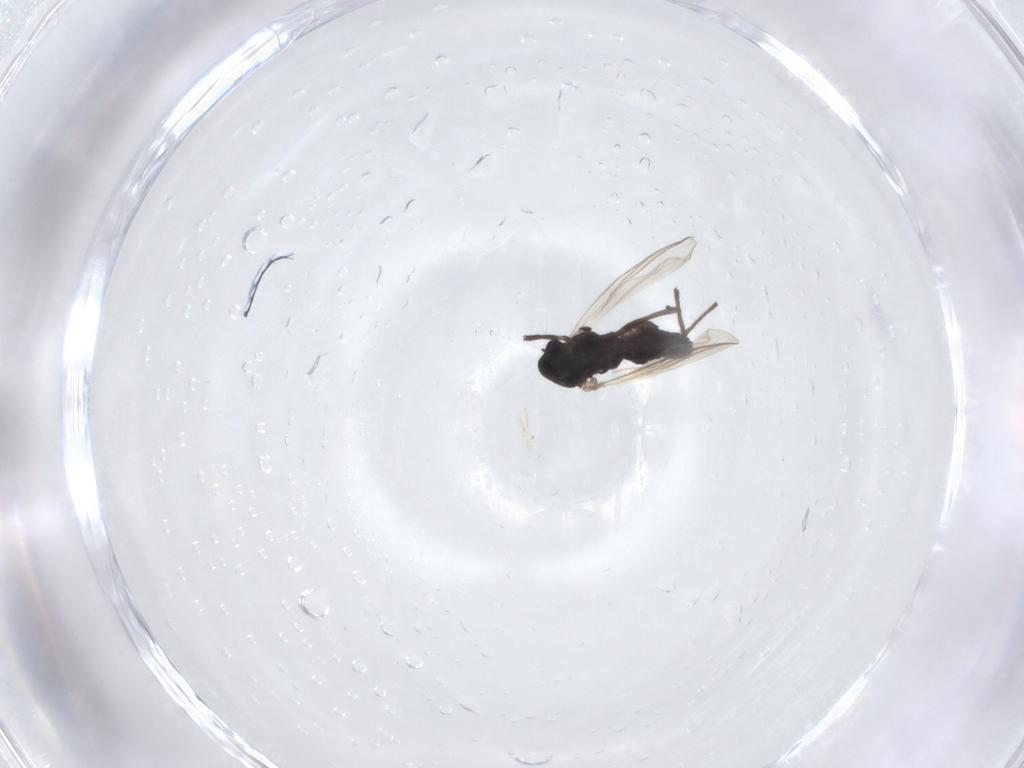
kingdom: Animalia
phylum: Arthropoda
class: Insecta
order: Diptera
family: Chironomidae
